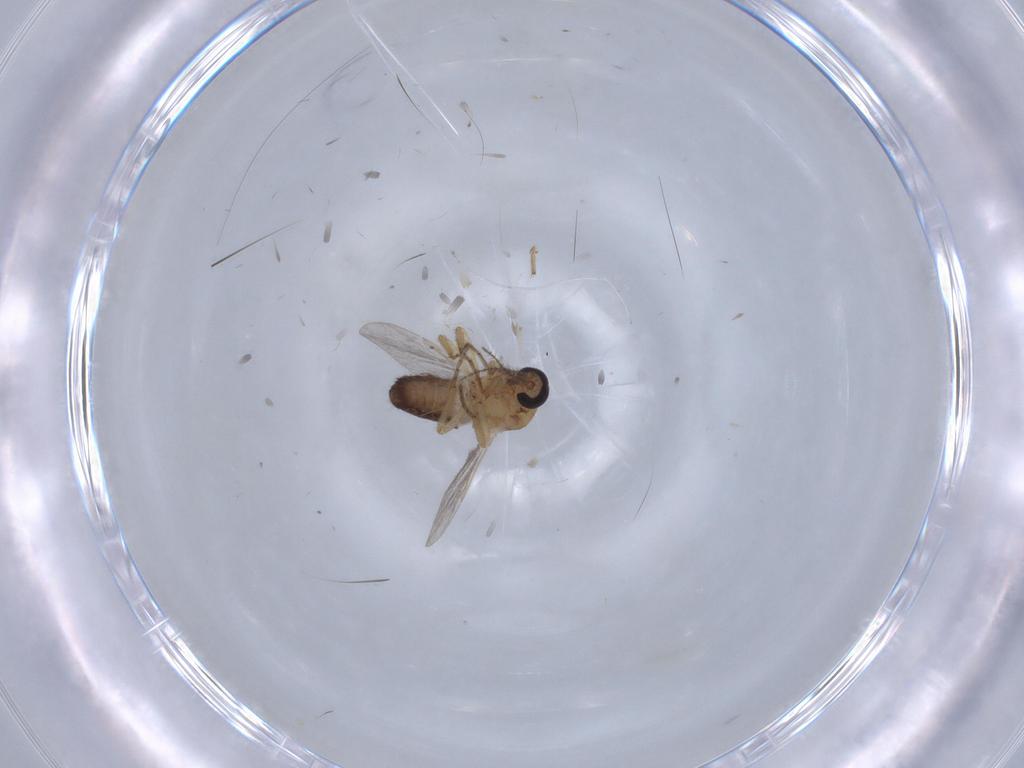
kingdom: Animalia
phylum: Arthropoda
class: Insecta
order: Diptera
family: Ceratopogonidae
